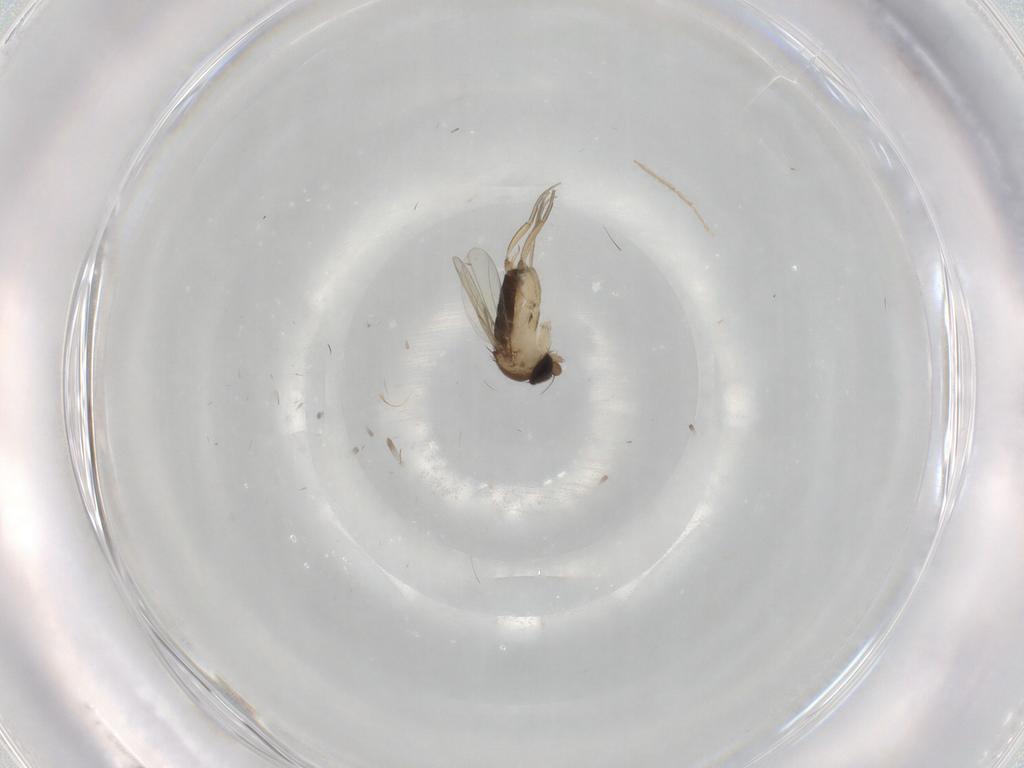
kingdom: Animalia
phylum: Arthropoda
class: Insecta
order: Diptera
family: Phoridae
